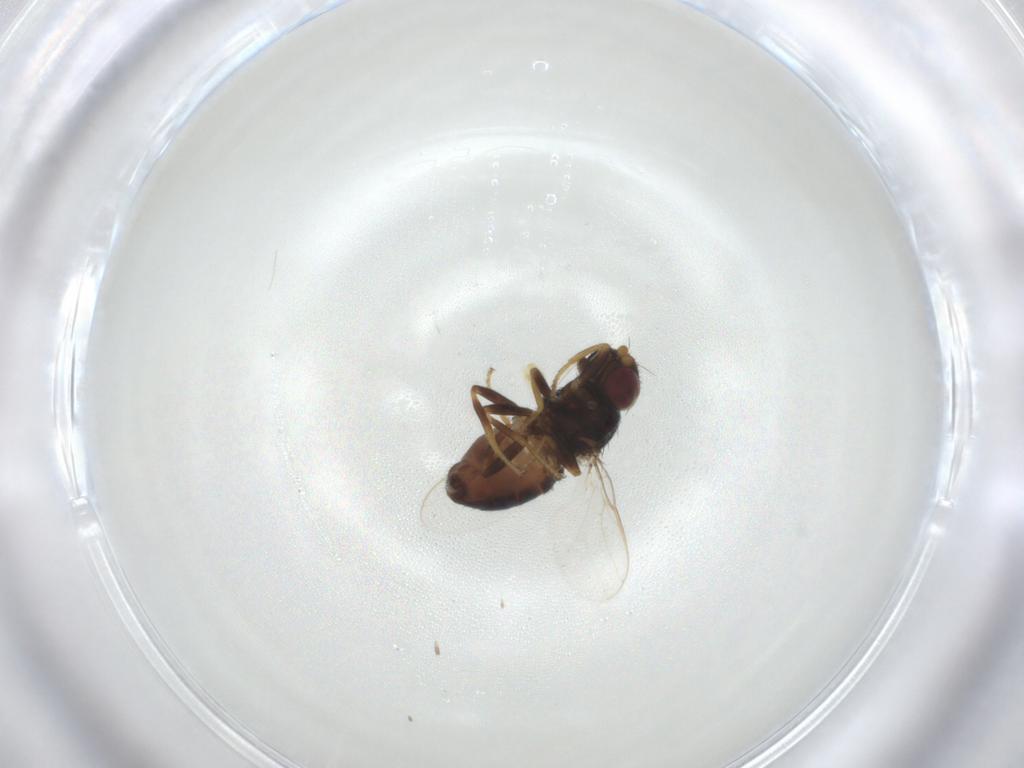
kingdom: Animalia
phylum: Arthropoda
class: Insecta
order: Diptera
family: Chloropidae
